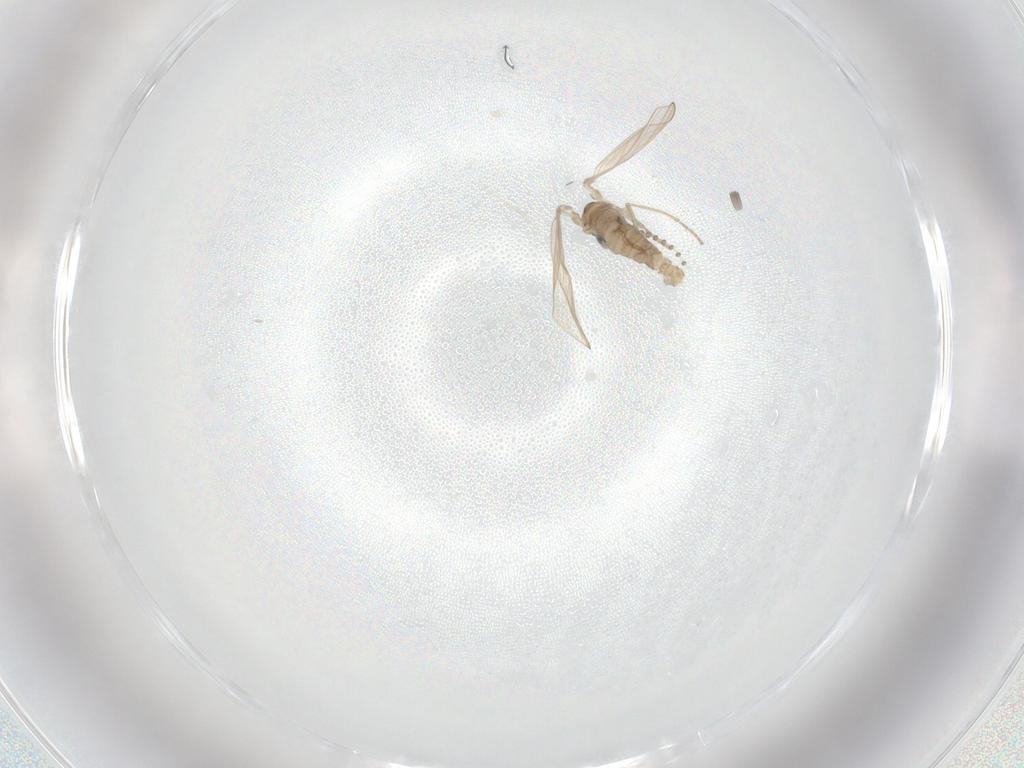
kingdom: Animalia
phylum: Arthropoda
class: Insecta
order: Diptera
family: Psychodidae
